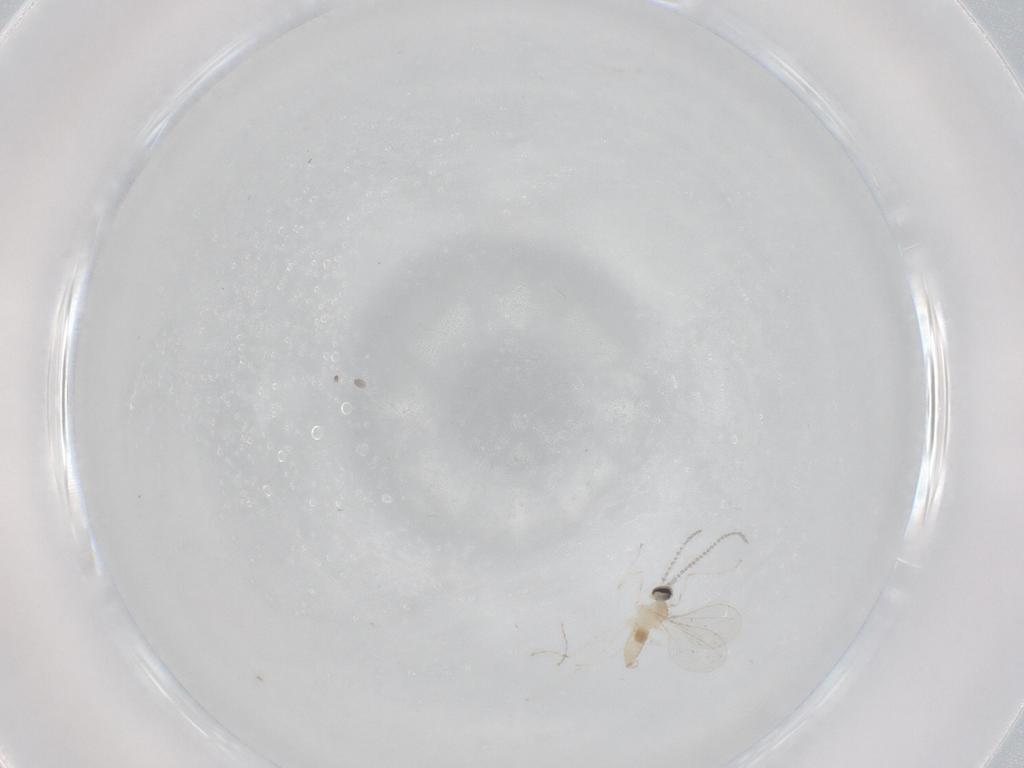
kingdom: Animalia
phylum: Arthropoda
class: Insecta
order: Diptera
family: Cecidomyiidae
